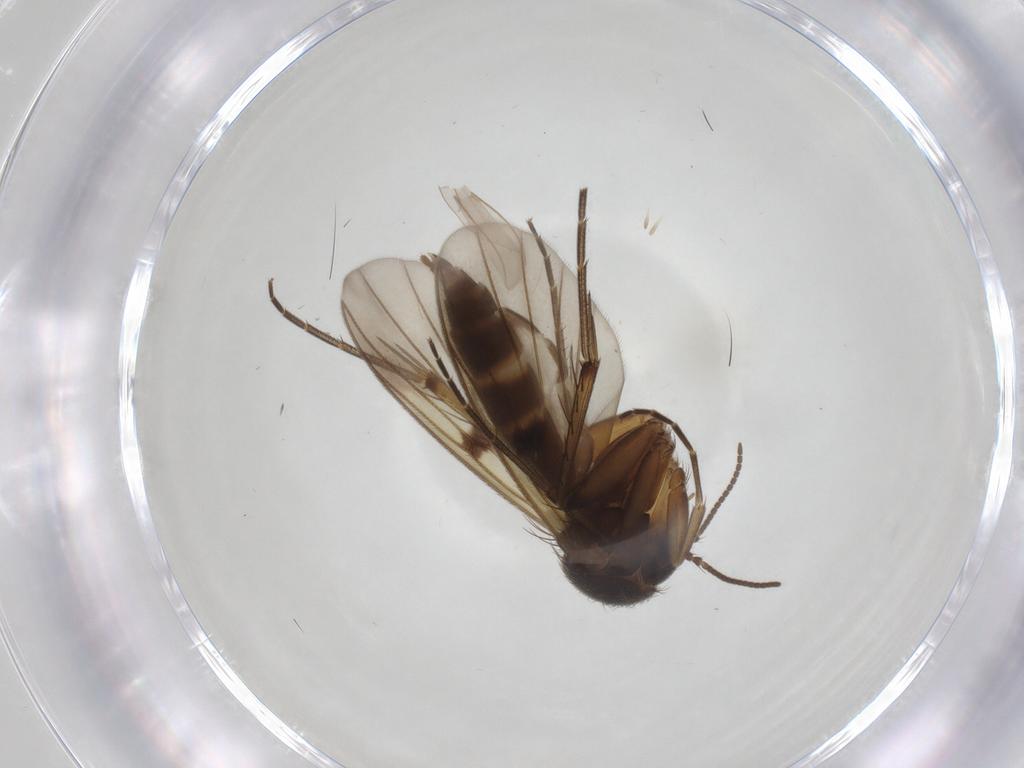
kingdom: Animalia
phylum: Arthropoda
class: Insecta
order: Diptera
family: Mycetophilidae
